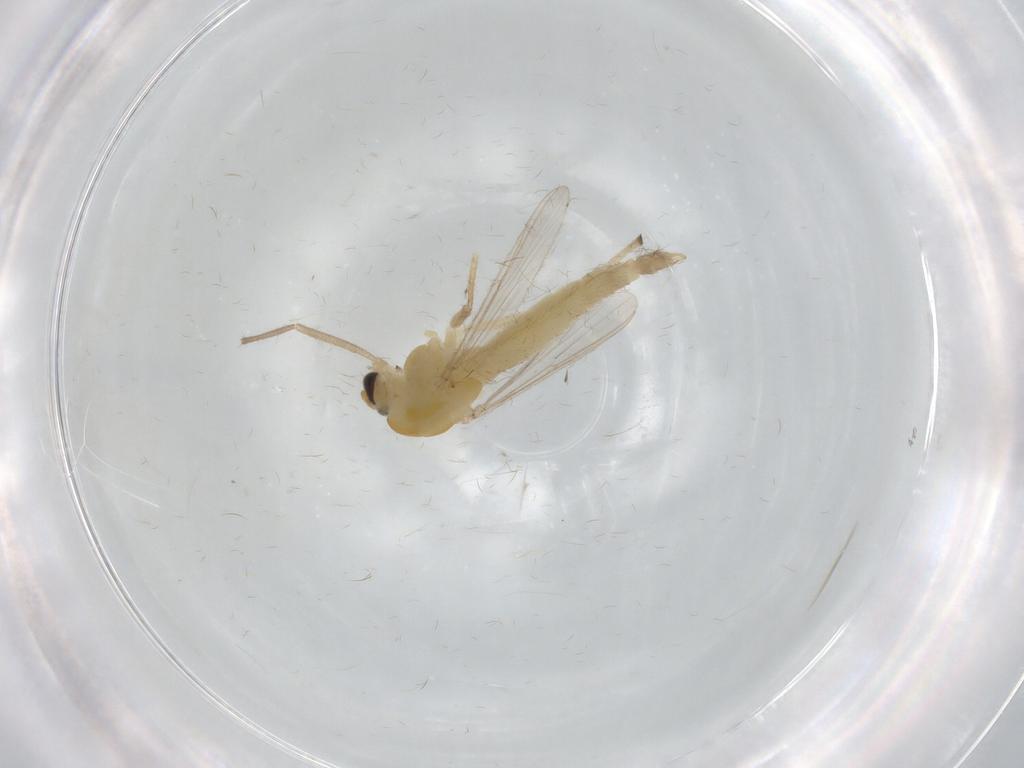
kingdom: Animalia
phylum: Arthropoda
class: Insecta
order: Diptera
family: Chironomidae
